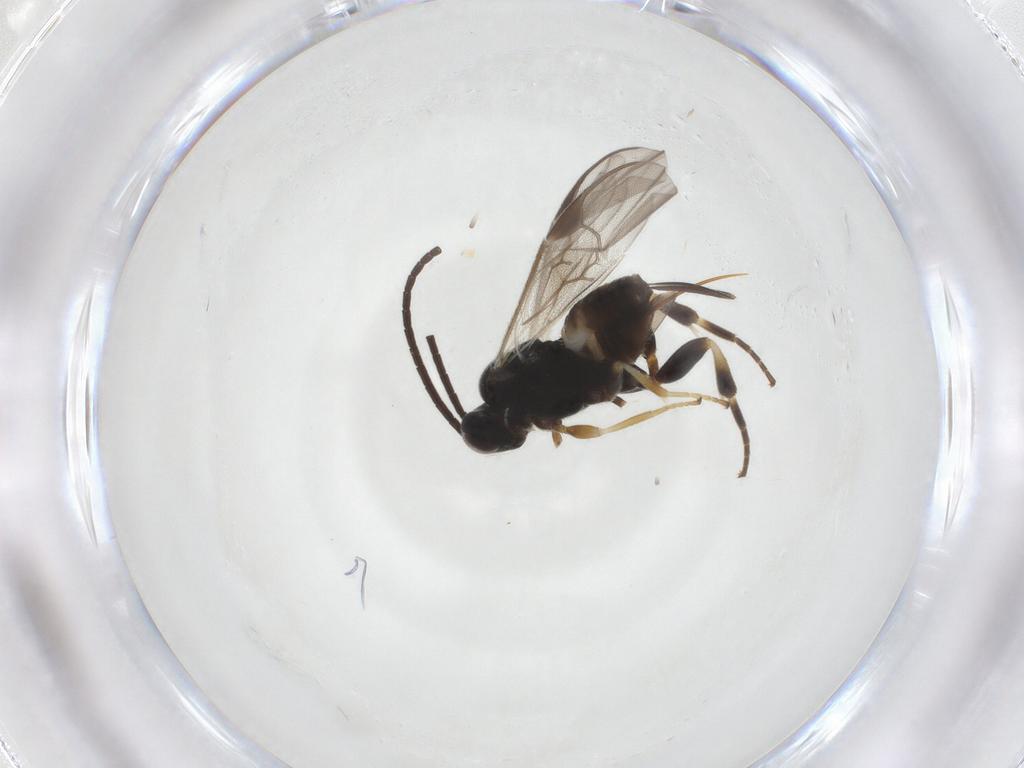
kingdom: Animalia
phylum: Arthropoda
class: Insecta
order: Hymenoptera
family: Braconidae
